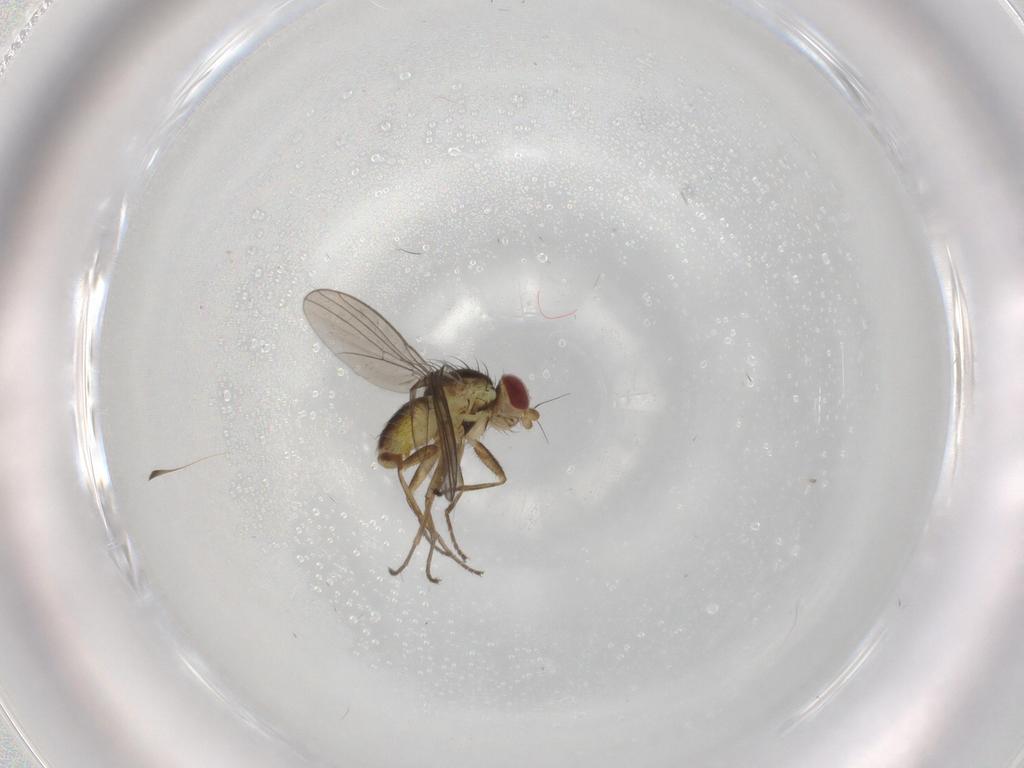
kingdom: Animalia
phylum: Arthropoda
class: Insecta
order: Diptera
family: Agromyzidae
